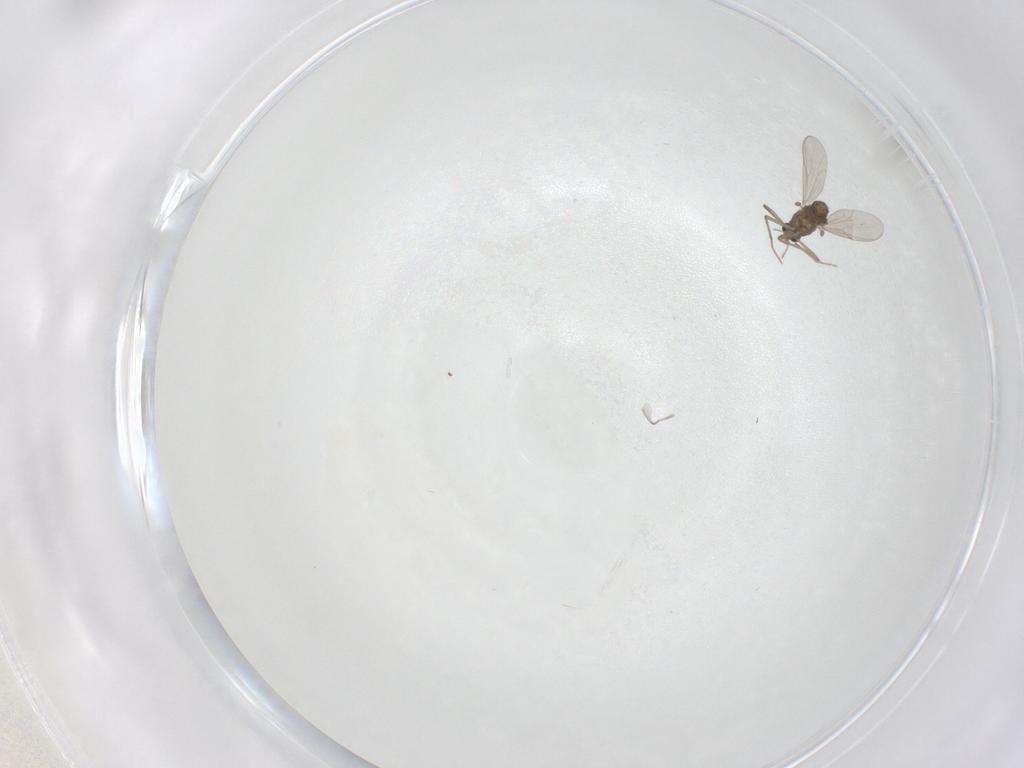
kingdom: Animalia
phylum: Arthropoda
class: Insecta
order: Diptera
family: Chironomidae
